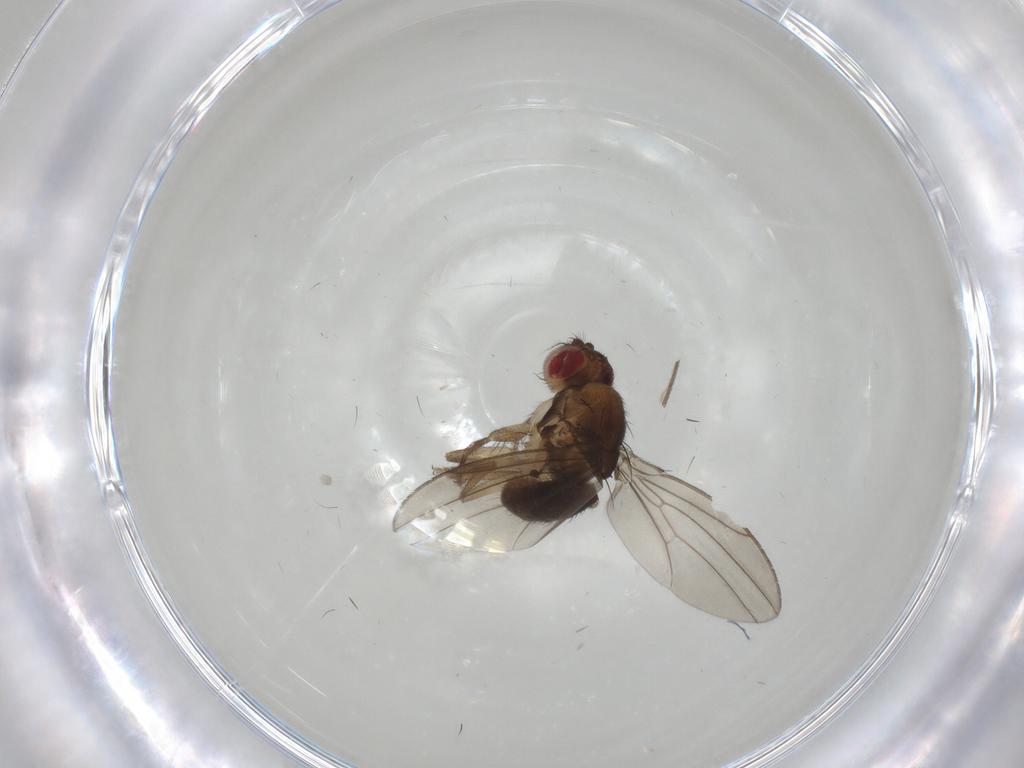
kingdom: Animalia
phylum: Arthropoda
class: Insecta
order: Diptera
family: Drosophilidae
